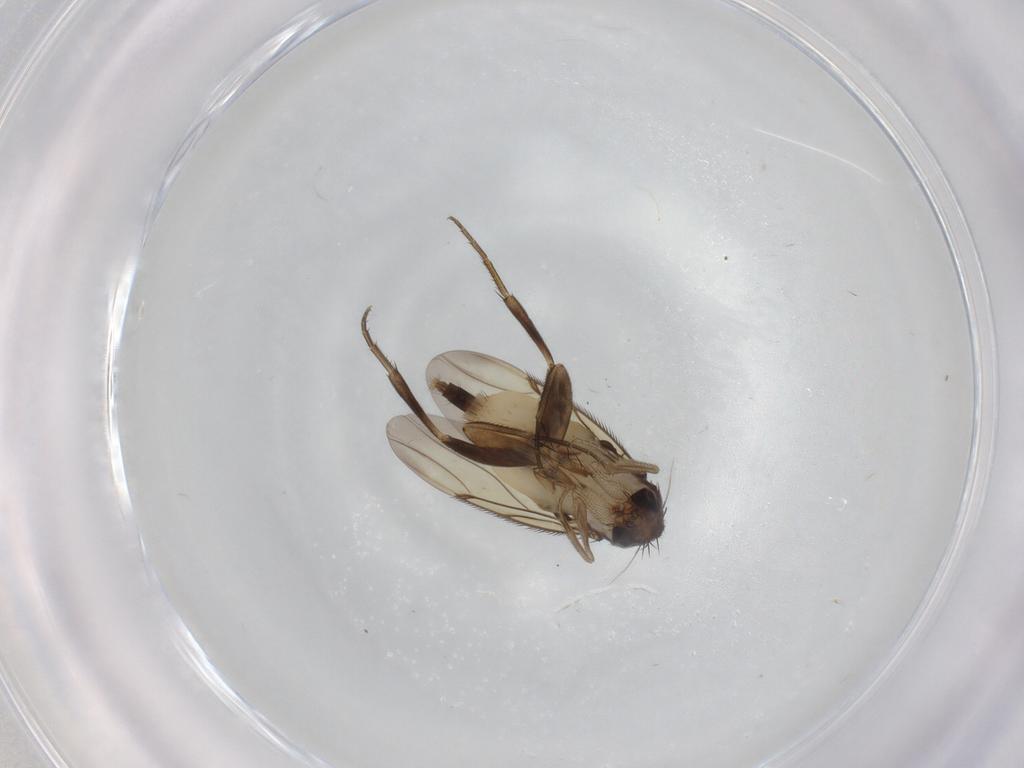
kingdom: Animalia
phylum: Arthropoda
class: Insecta
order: Diptera
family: Phoridae
